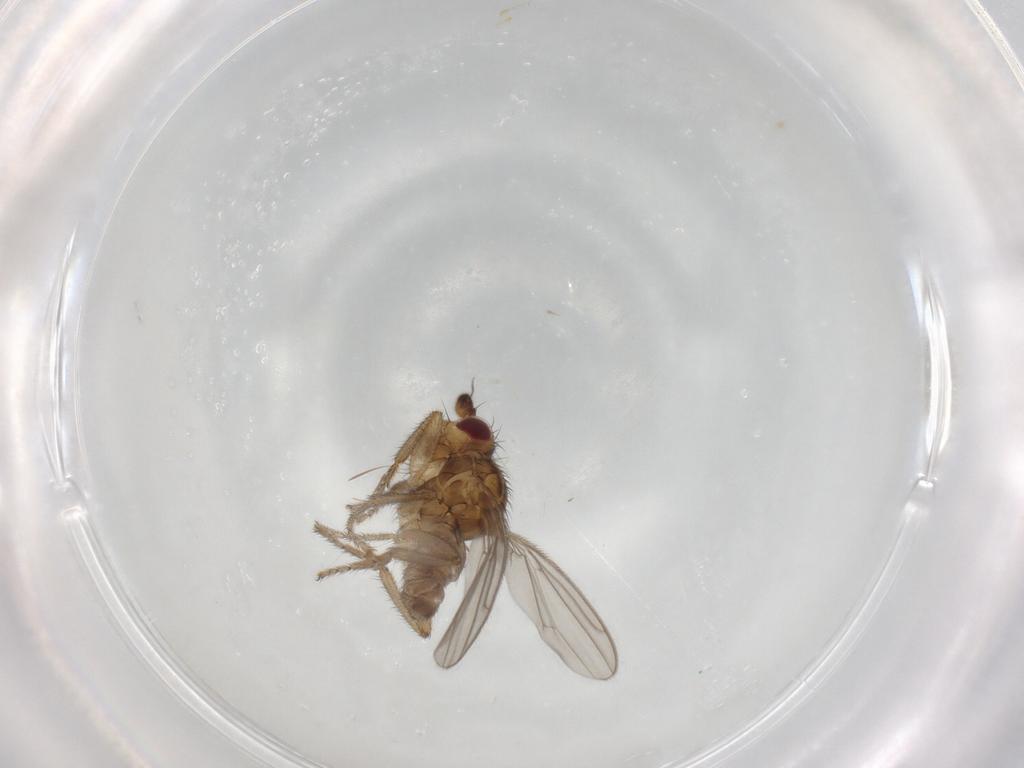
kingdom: Animalia
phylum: Arthropoda
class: Insecta
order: Diptera
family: Sphaeroceridae
